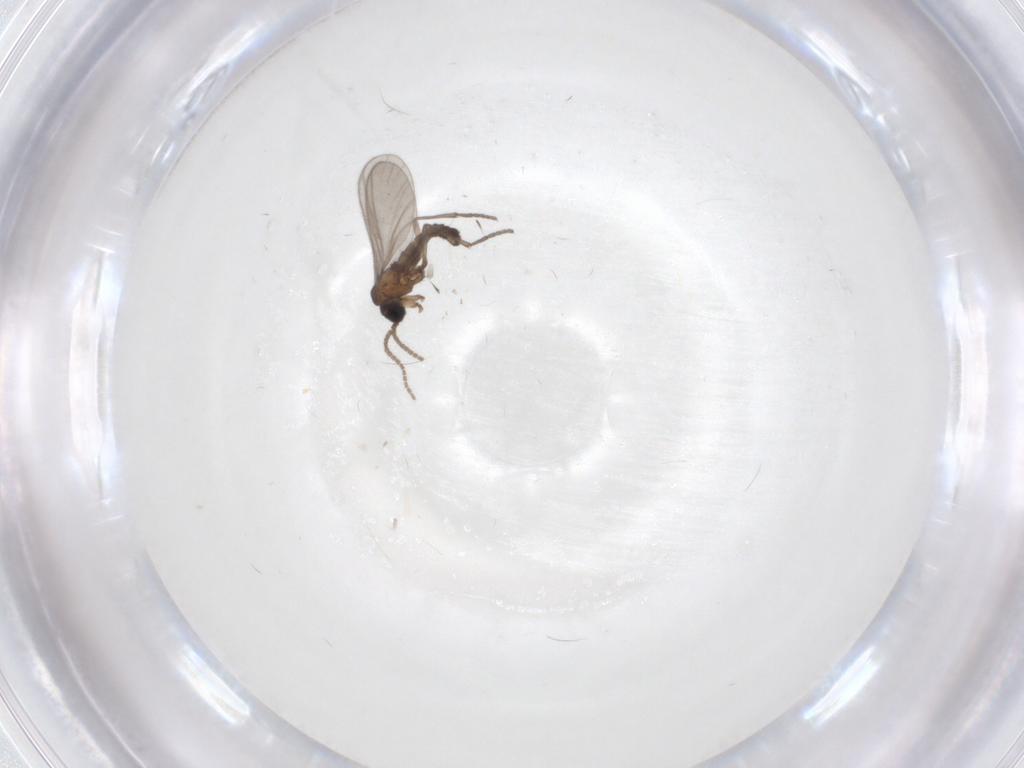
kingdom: Animalia
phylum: Arthropoda
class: Insecta
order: Diptera
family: Sciaridae
